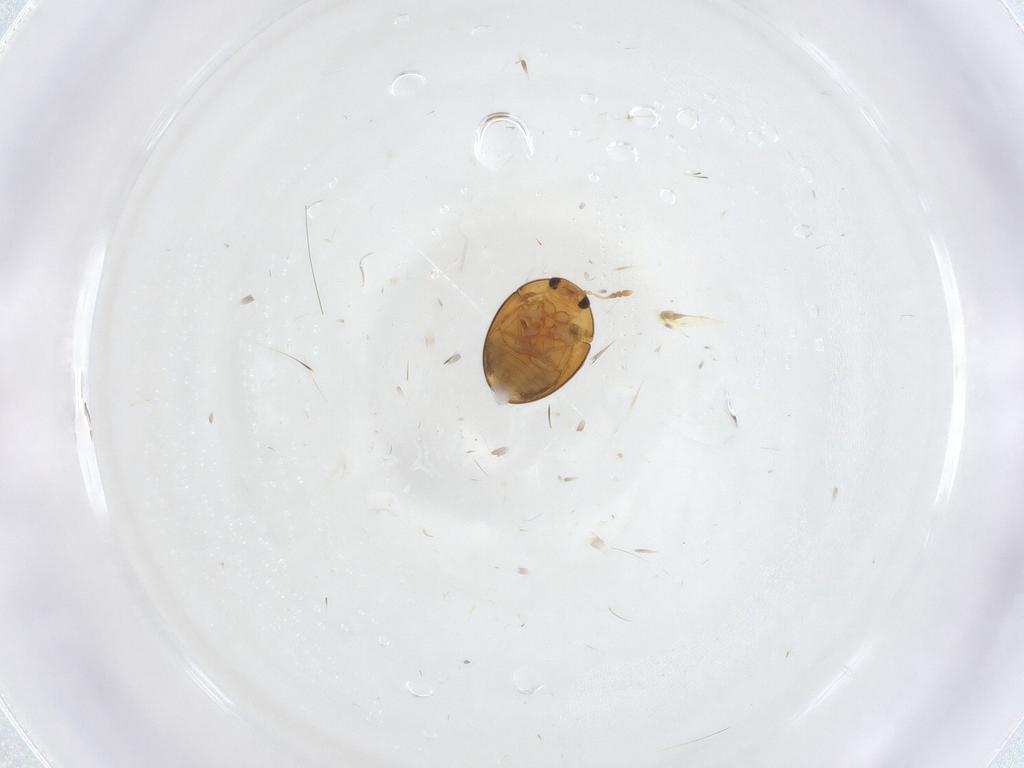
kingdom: Animalia
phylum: Arthropoda
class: Insecta
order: Coleoptera
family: Phalacridae
